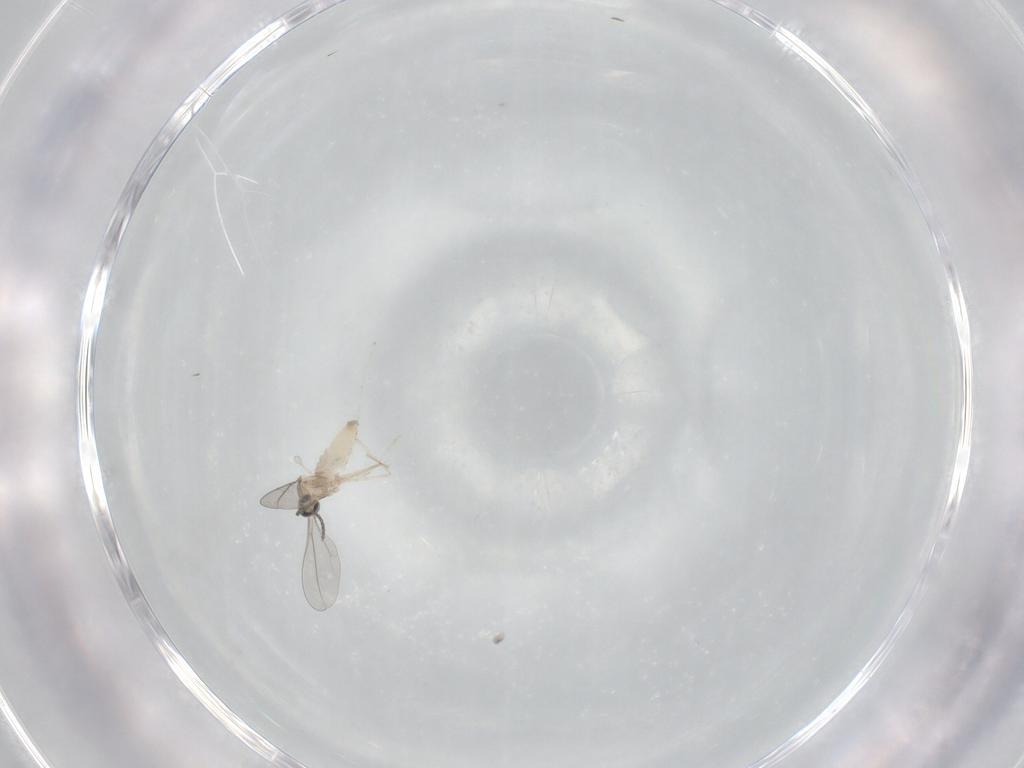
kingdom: Animalia
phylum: Arthropoda
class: Insecta
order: Diptera
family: Cecidomyiidae
